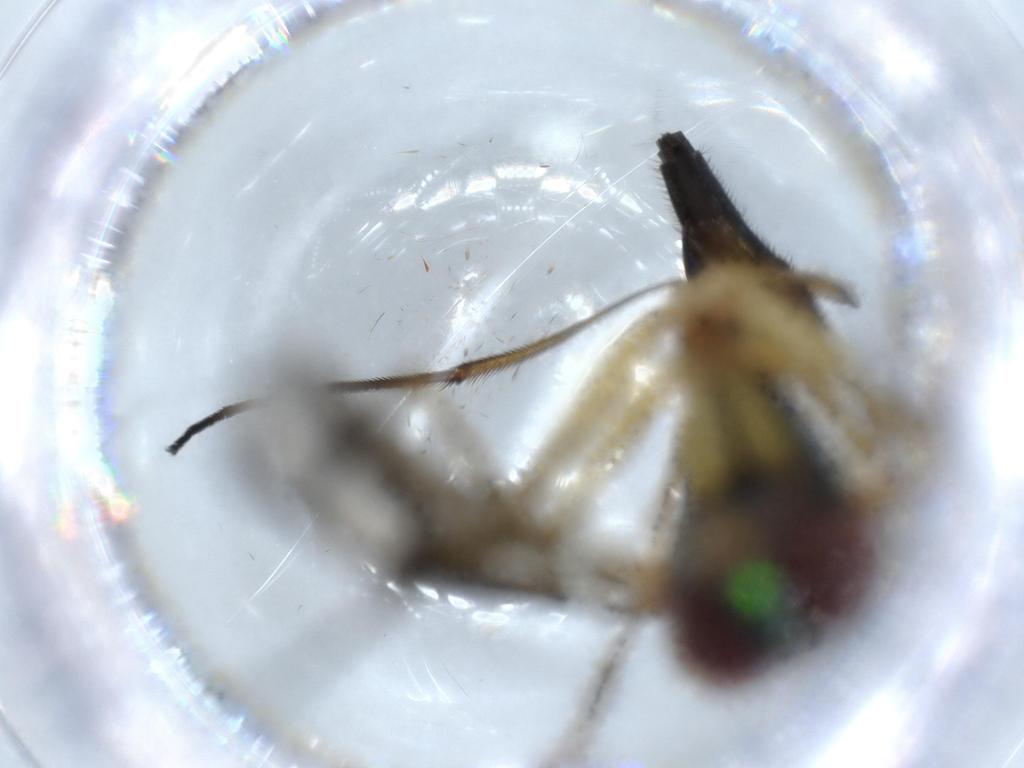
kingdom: Animalia
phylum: Arthropoda
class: Insecta
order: Diptera
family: Dolichopodidae
